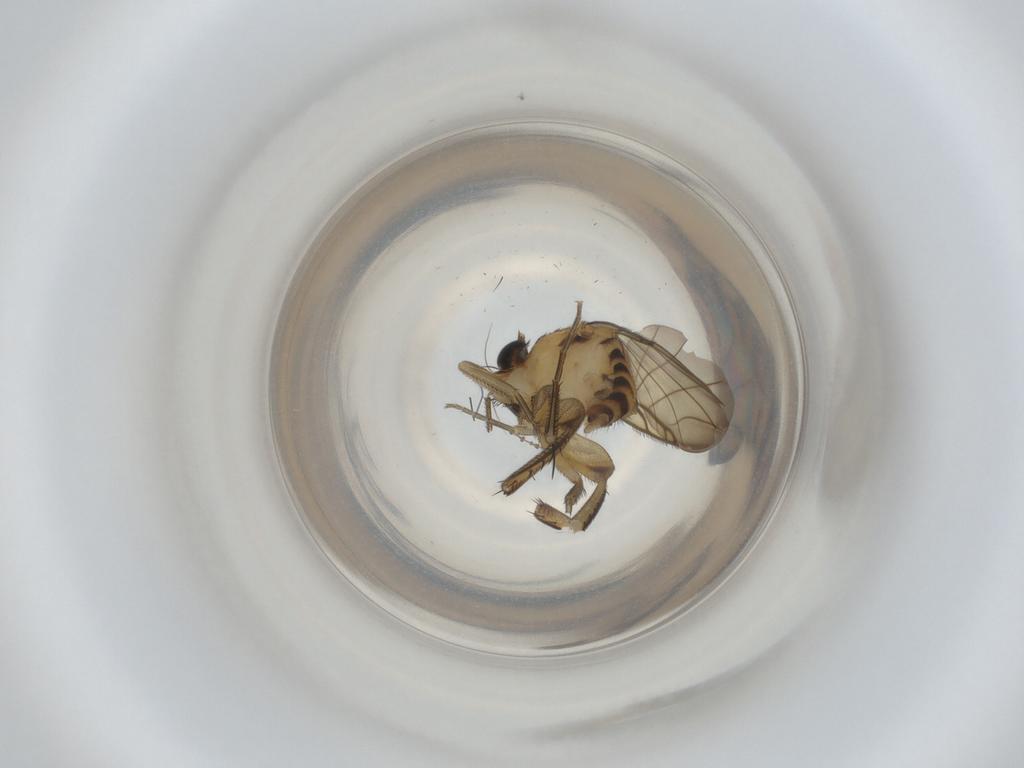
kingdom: Animalia
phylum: Arthropoda
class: Insecta
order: Diptera
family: Phoridae
